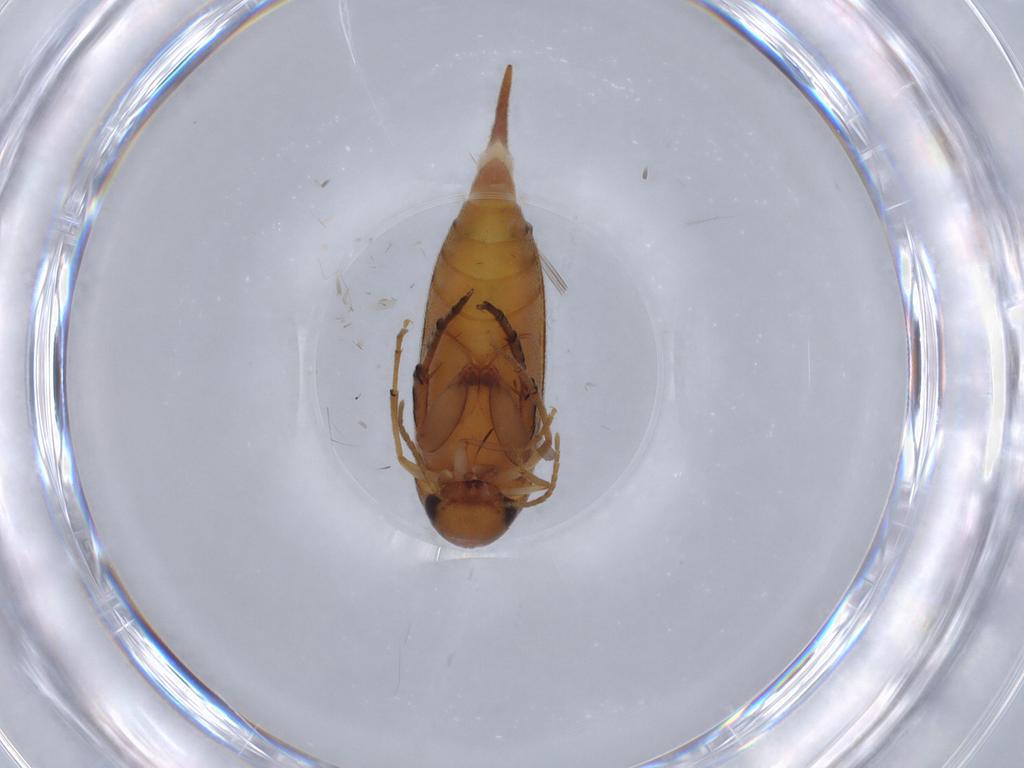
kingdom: Animalia
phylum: Arthropoda
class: Insecta
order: Coleoptera
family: Mordellidae
